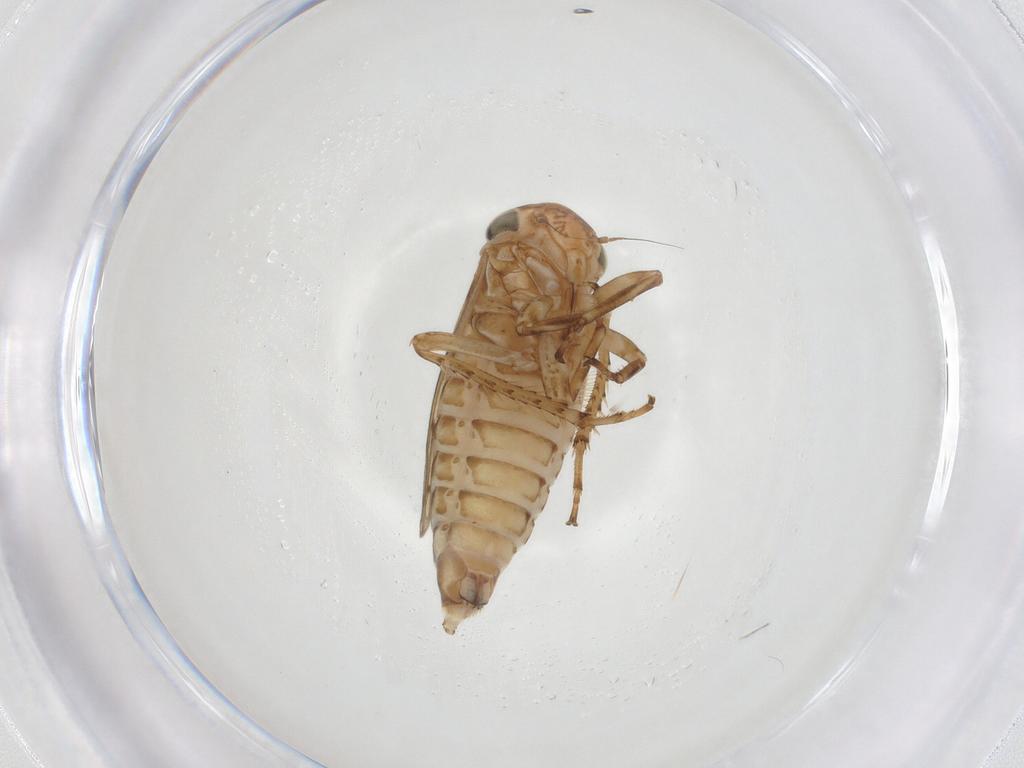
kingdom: Animalia
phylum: Arthropoda
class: Insecta
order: Hemiptera
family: Cicadellidae
